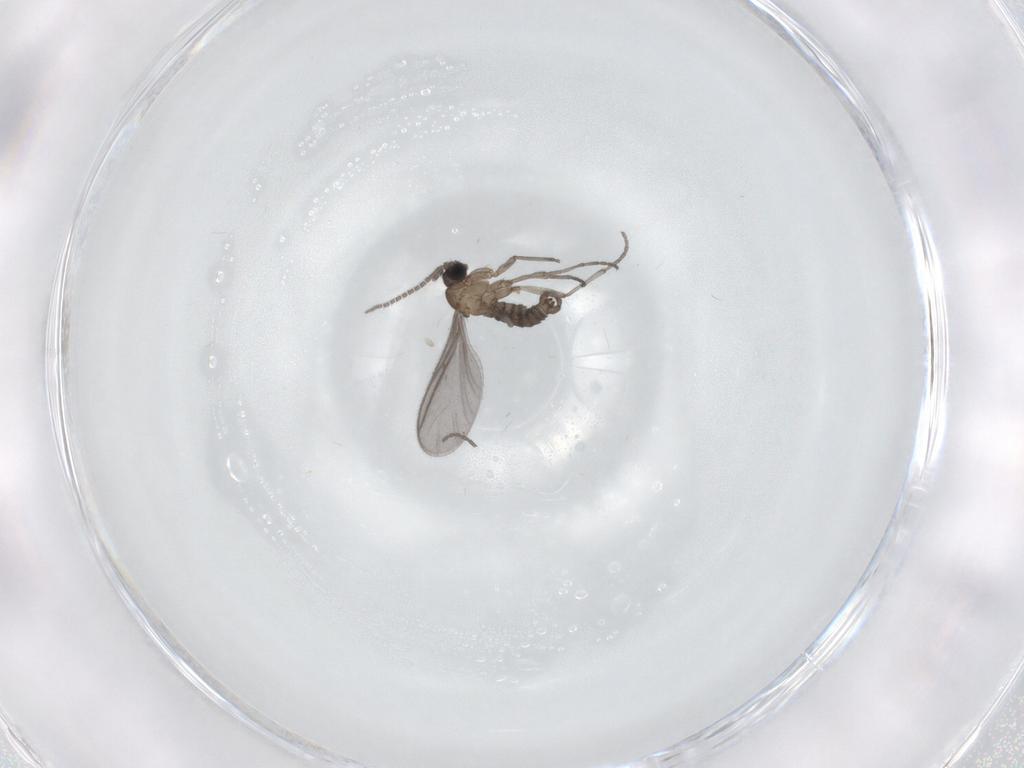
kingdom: Animalia
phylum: Arthropoda
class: Insecta
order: Diptera
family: Sciaridae
